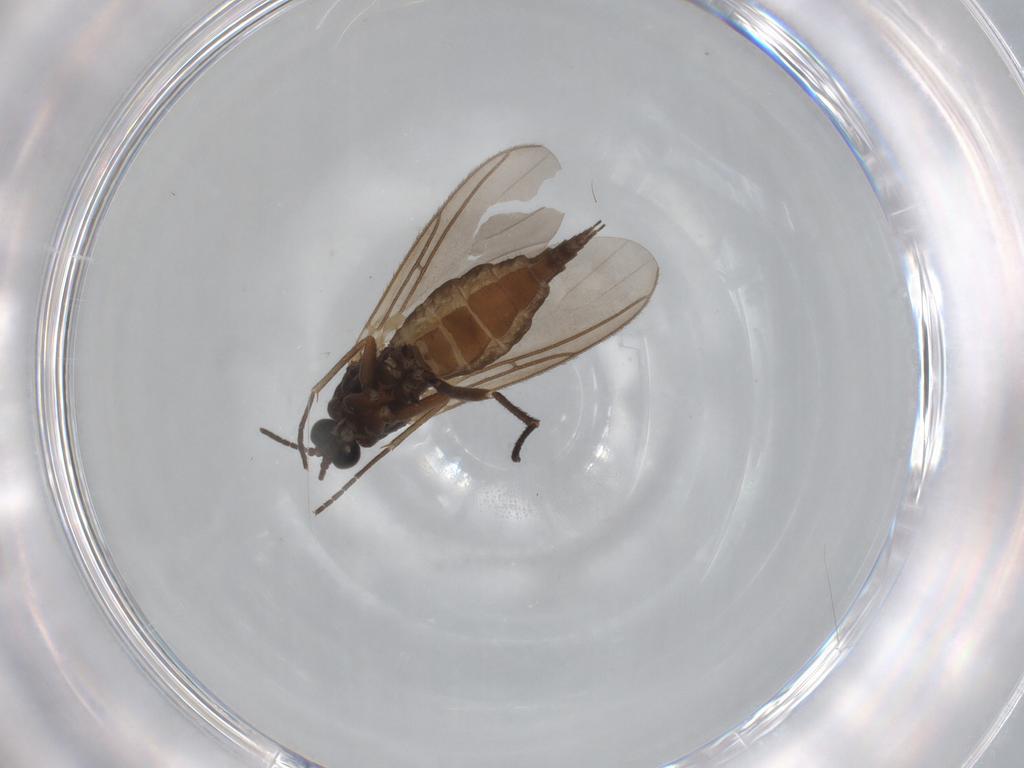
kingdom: Animalia
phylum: Arthropoda
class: Insecta
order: Diptera
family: Sciaridae
